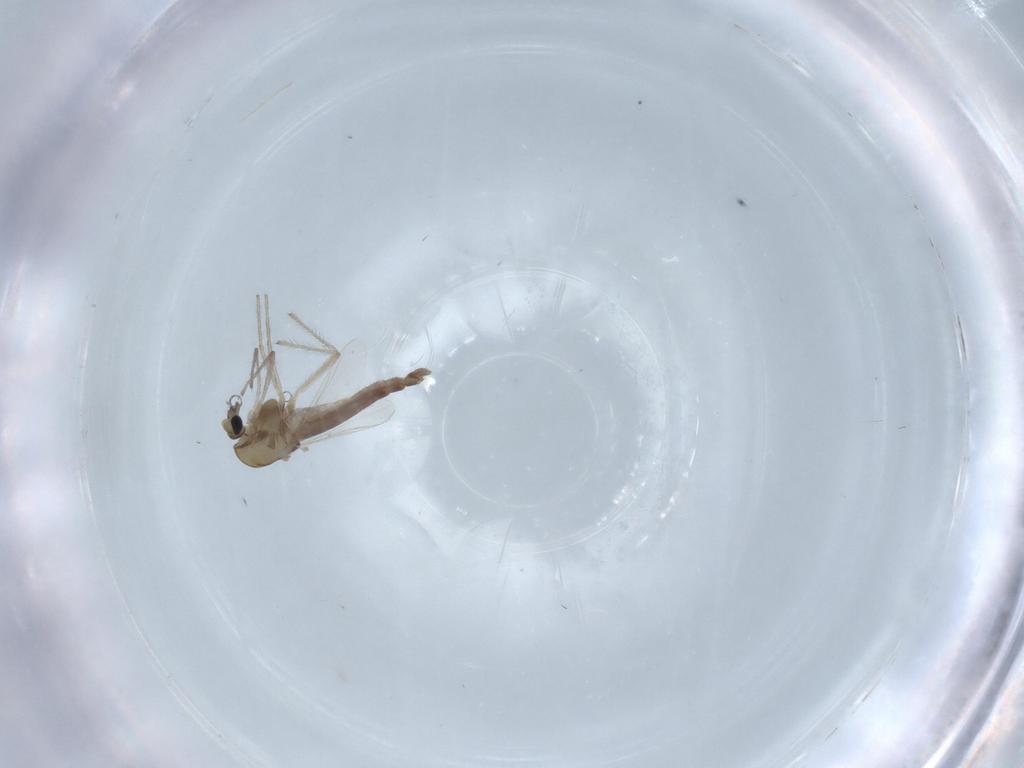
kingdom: Animalia
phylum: Arthropoda
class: Insecta
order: Diptera
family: Chironomidae
